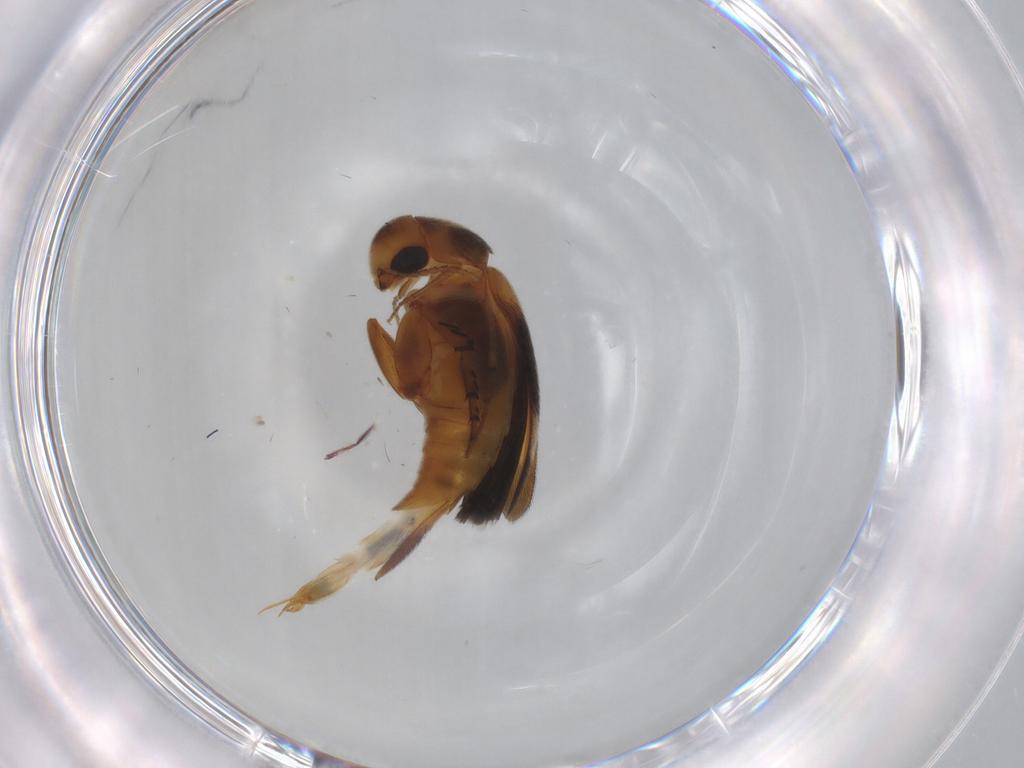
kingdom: Animalia
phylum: Arthropoda
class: Insecta
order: Coleoptera
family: Mordellidae
